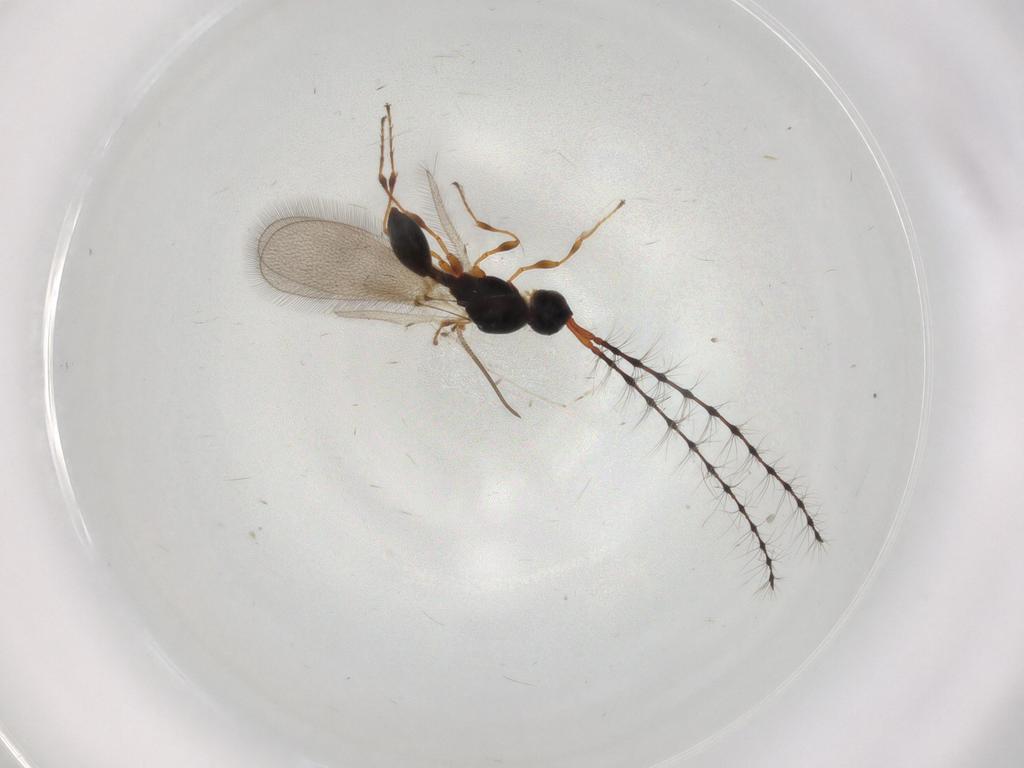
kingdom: Animalia
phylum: Arthropoda
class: Insecta
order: Hymenoptera
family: Diapriidae
